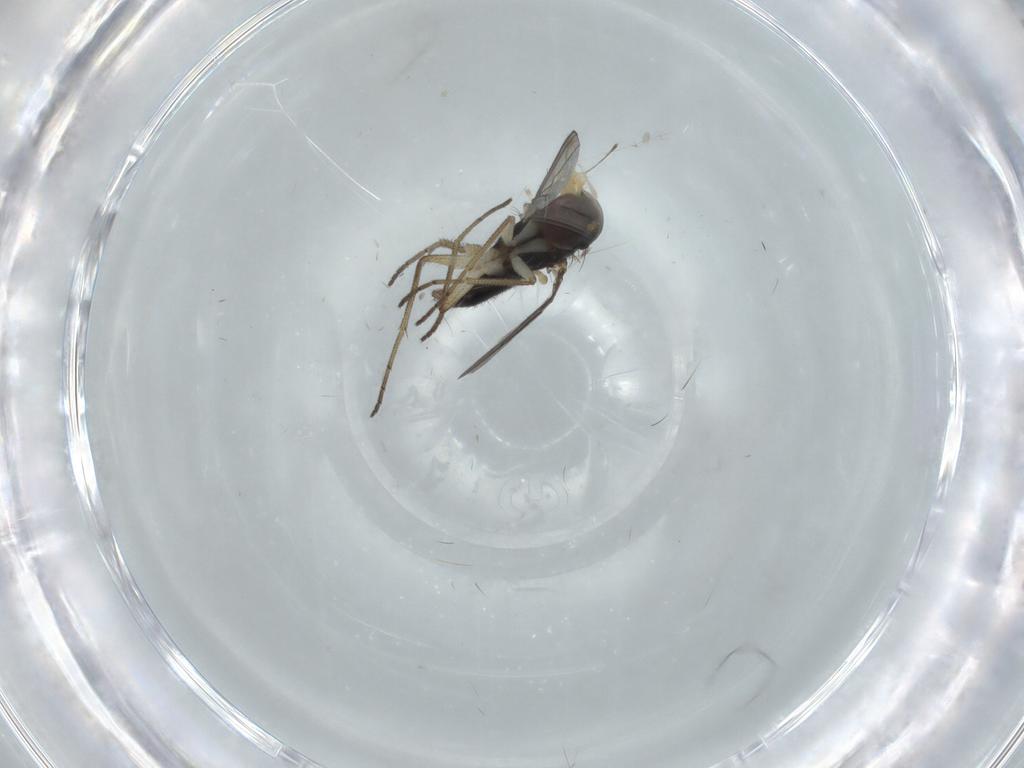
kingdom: Animalia
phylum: Arthropoda
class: Insecta
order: Diptera
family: Dolichopodidae
